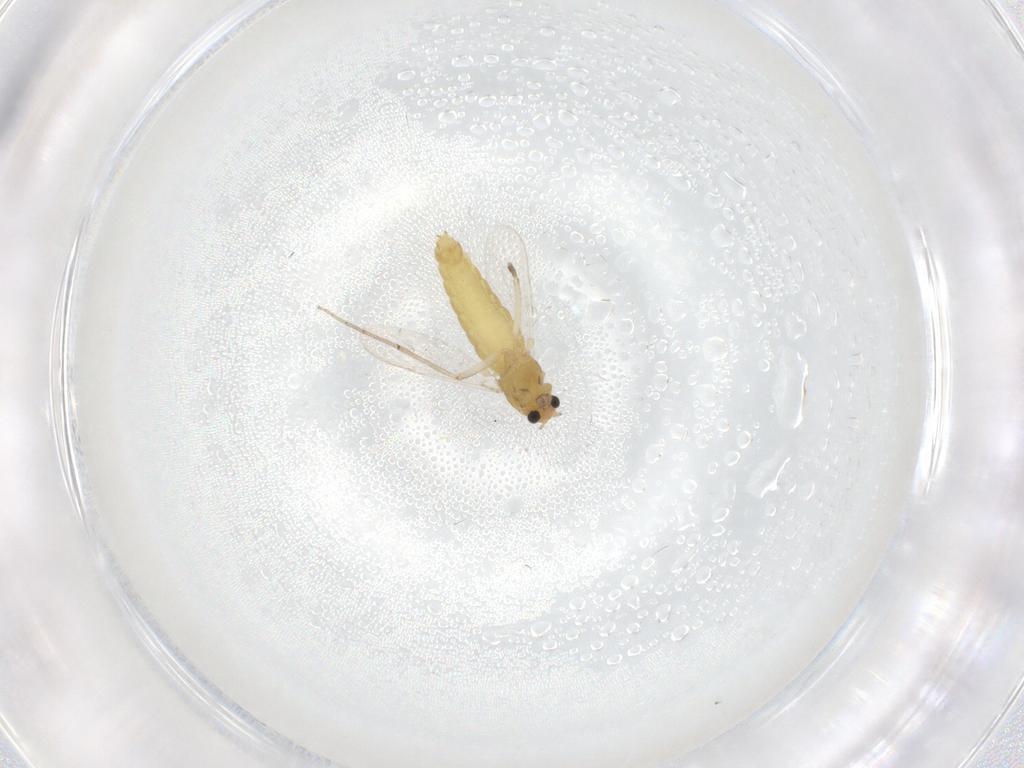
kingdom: Animalia
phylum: Arthropoda
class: Insecta
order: Diptera
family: Chironomidae
